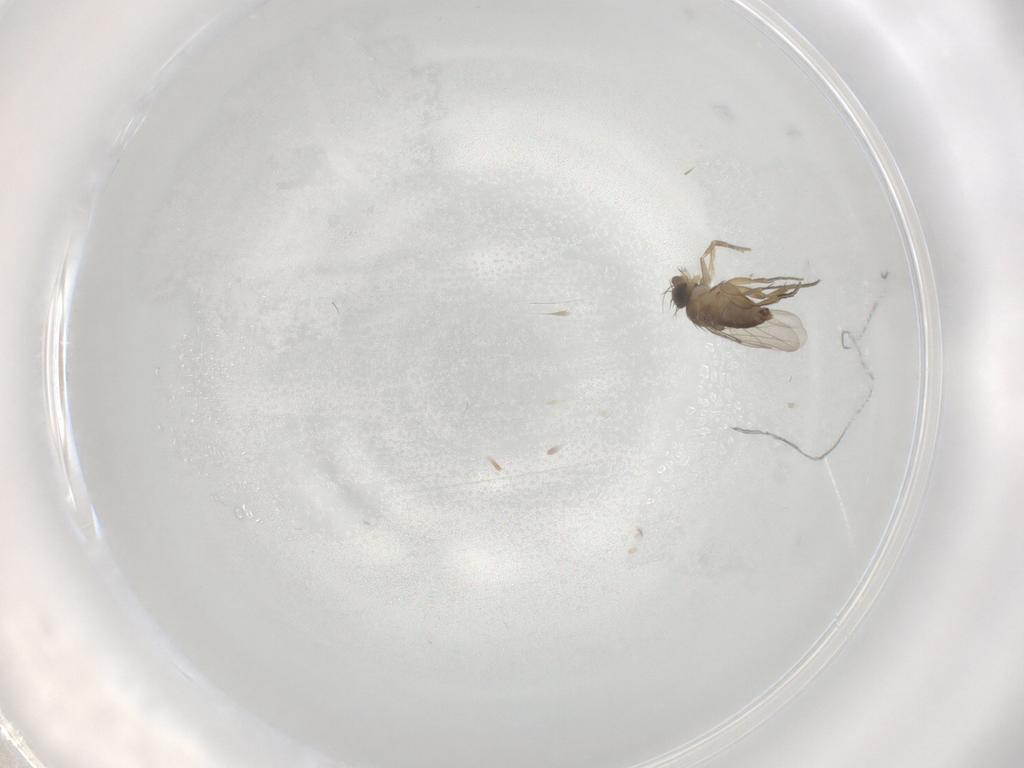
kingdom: Animalia
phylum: Arthropoda
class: Insecta
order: Diptera
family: Phoridae
